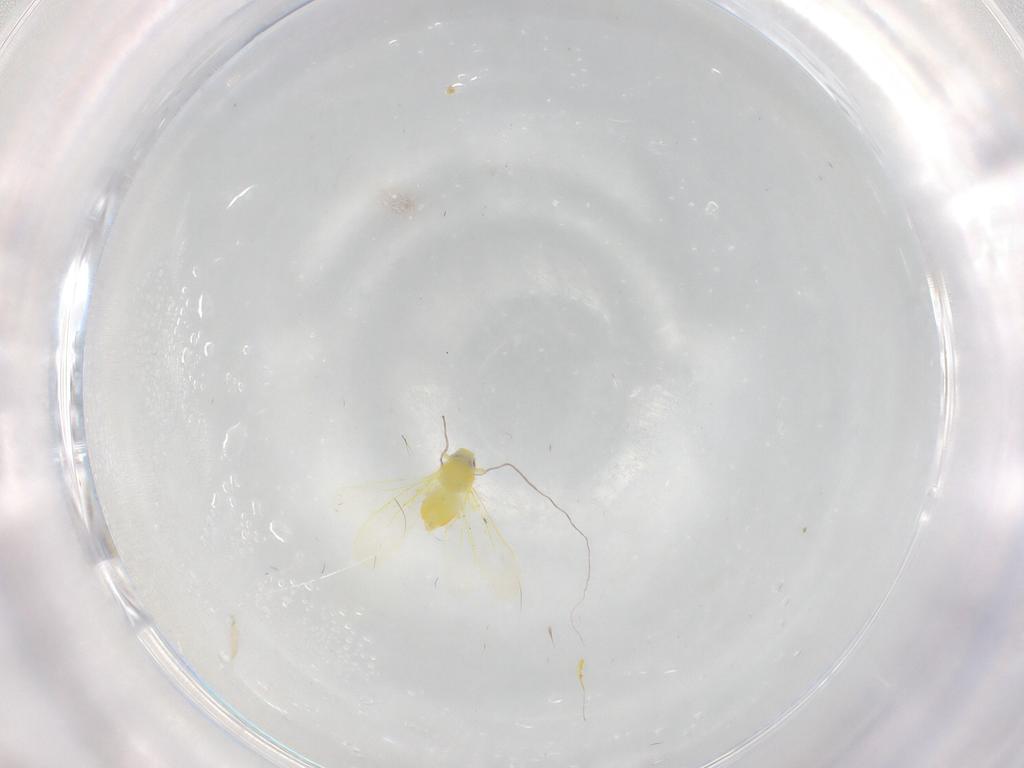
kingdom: Animalia
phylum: Arthropoda
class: Insecta
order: Hemiptera
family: Aleyrodidae
